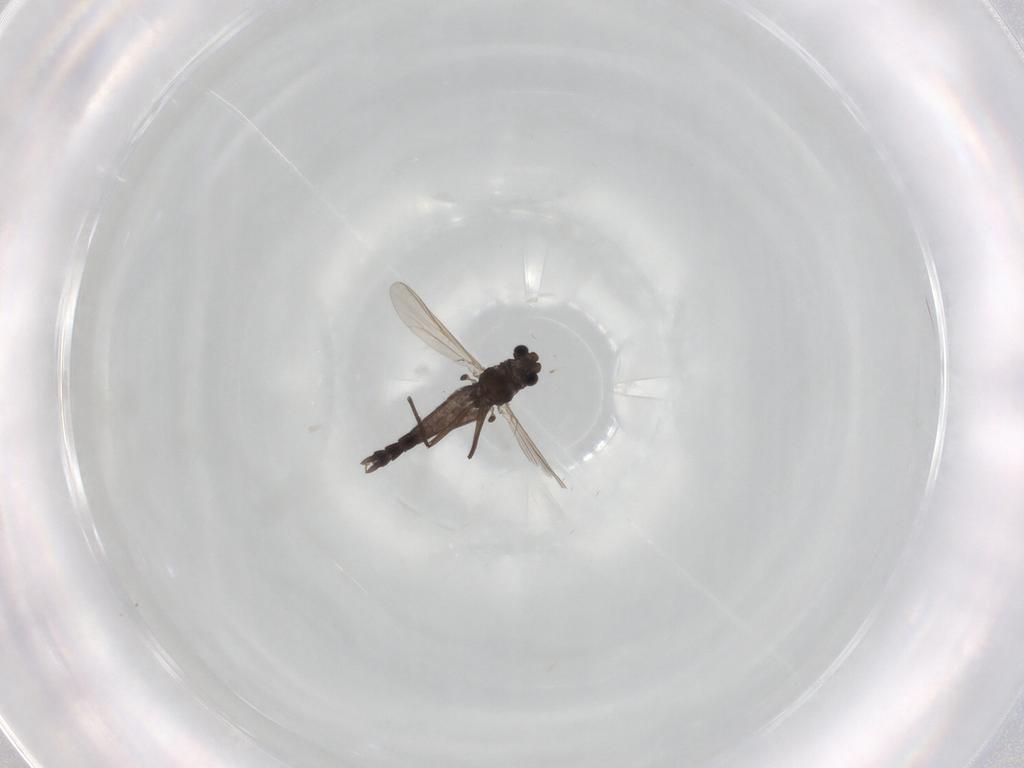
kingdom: Animalia
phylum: Arthropoda
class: Insecta
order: Diptera
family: Chironomidae
